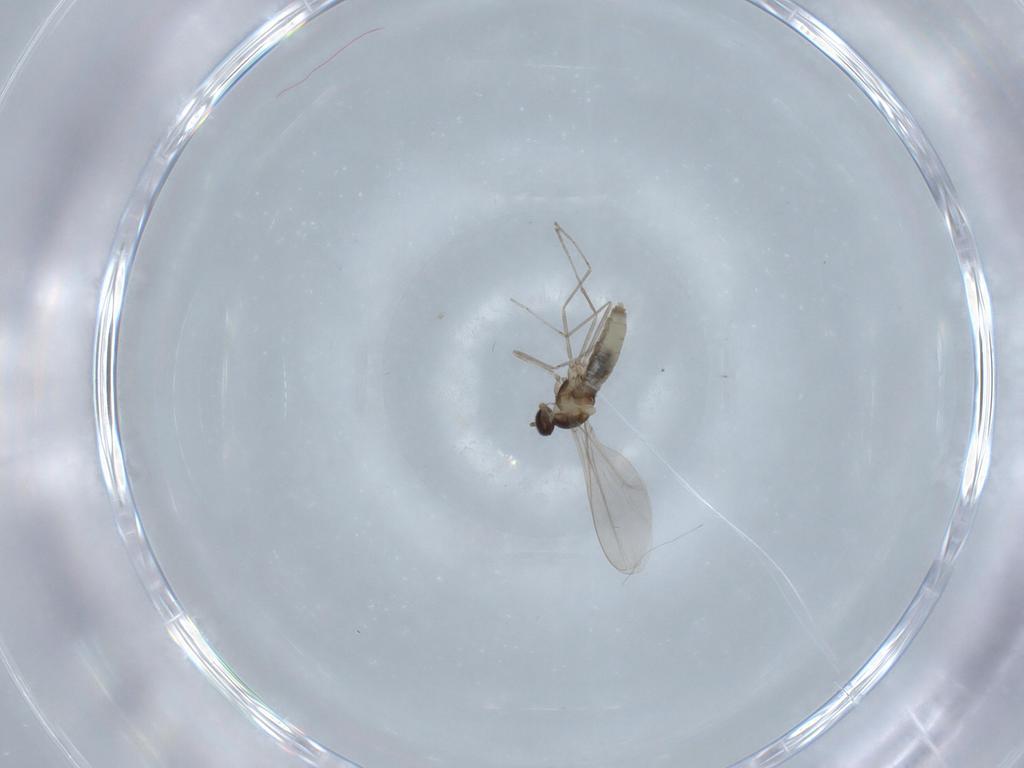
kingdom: Animalia
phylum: Arthropoda
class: Insecta
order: Diptera
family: Cecidomyiidae
